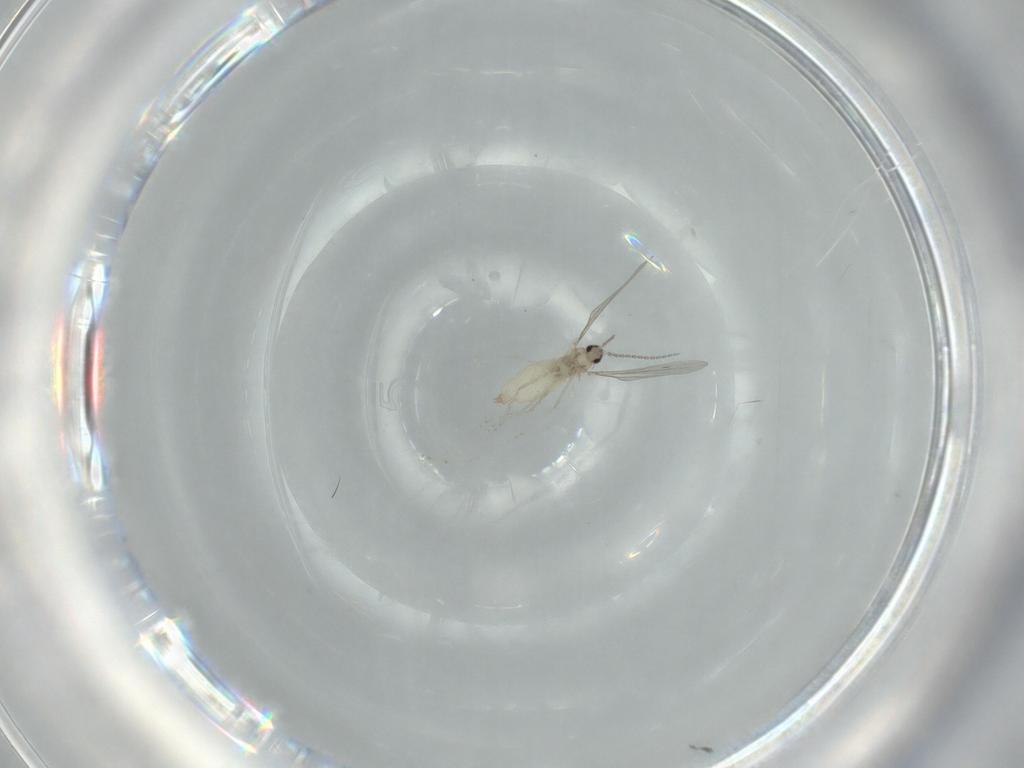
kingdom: Animalia
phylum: Arthropoda
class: Insecta
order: Diptera
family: Cecidomyiidae
